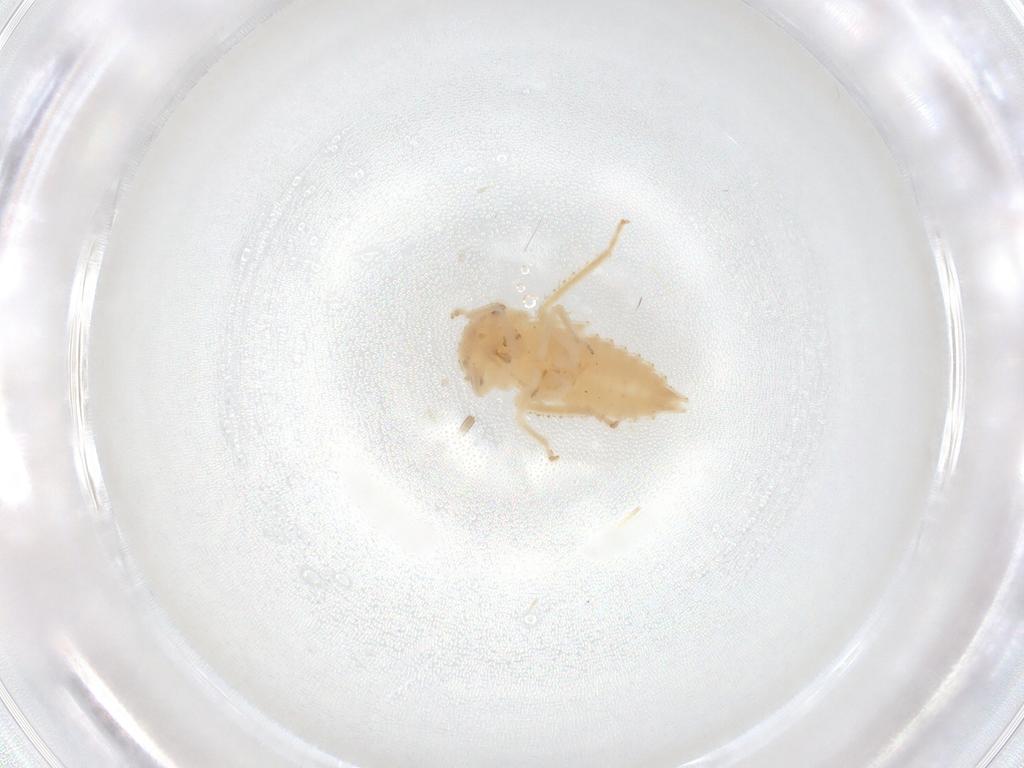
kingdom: Animalia
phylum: Arthropoda
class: Insecta
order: Hemiptera
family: Cicadellidae
